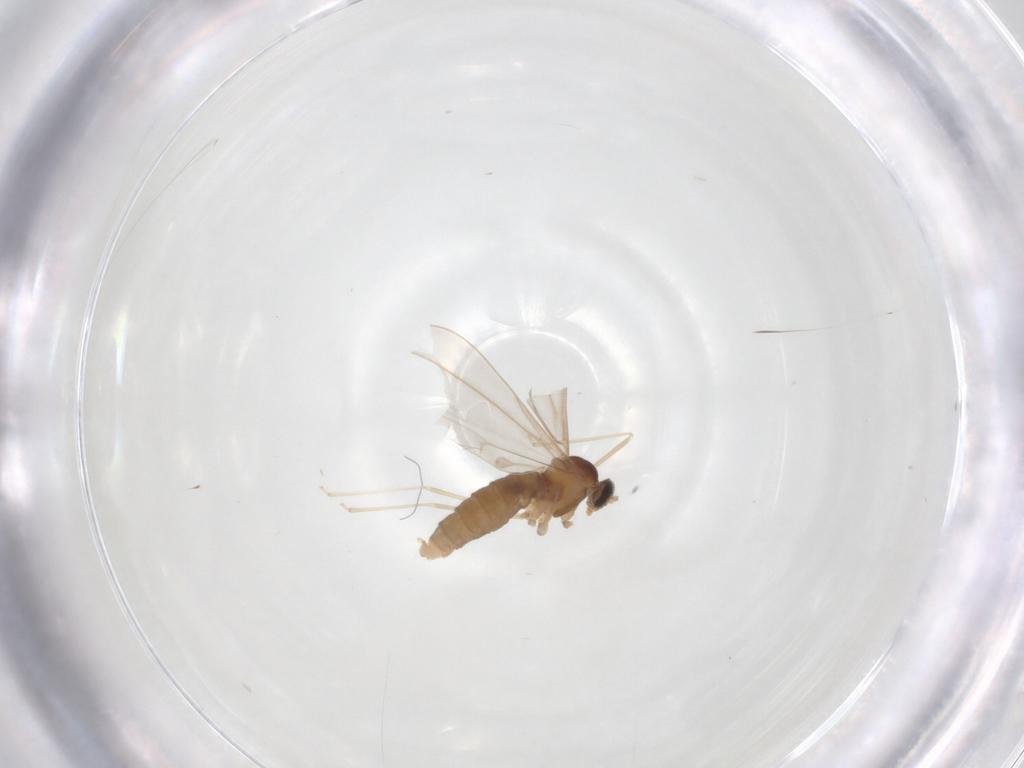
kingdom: Animalia
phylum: Arthropoda
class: Insecta
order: Diptera
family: Cecidomyiidae
